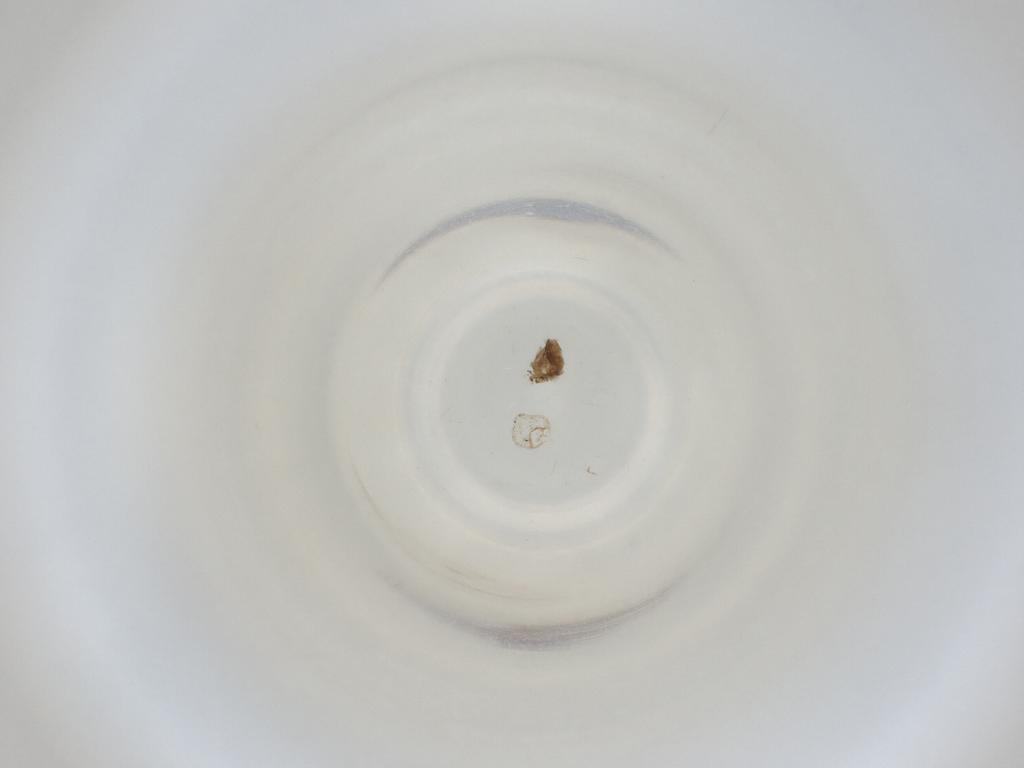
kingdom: Animalia
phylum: Arthropoda
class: Insecta
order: Diptera
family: Cecidomyiidae
